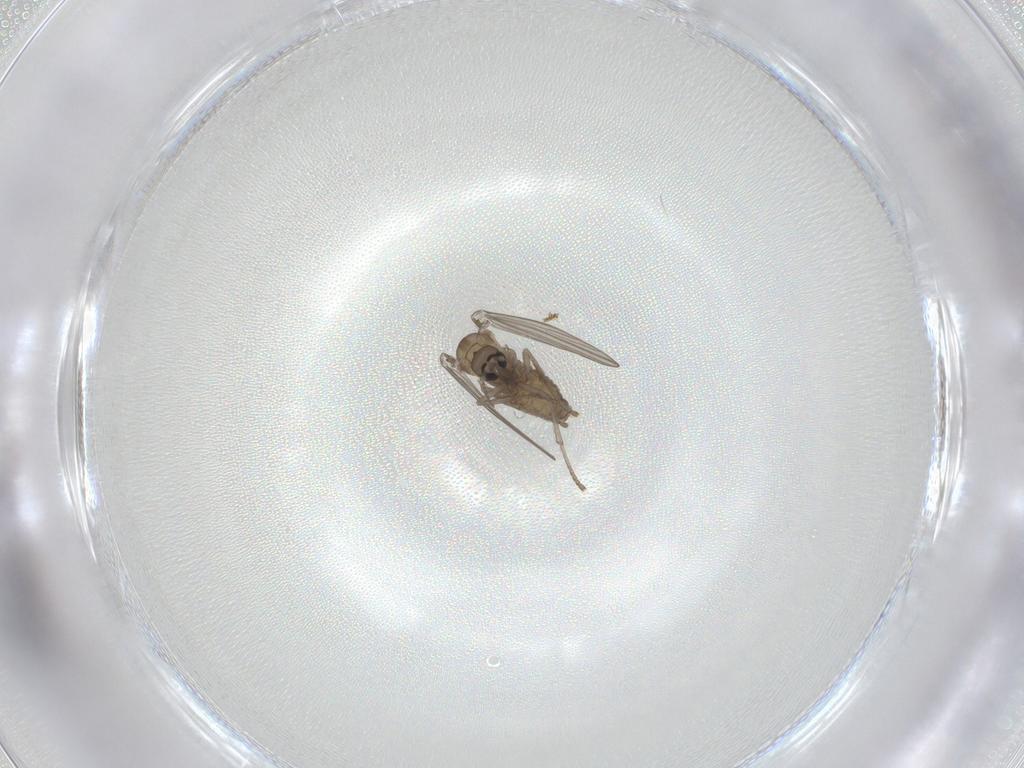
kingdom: Animalia
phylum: Arthropoda
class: Insecta
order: Diptera
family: Psychodidae
